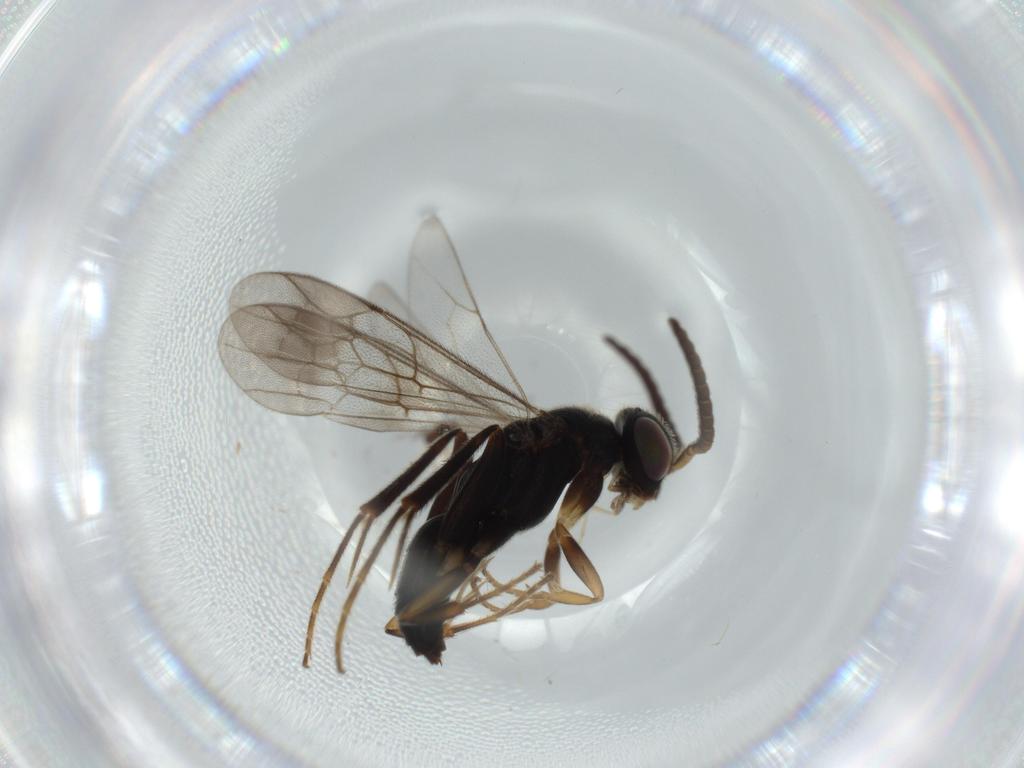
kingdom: Animalia
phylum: Arthropoda
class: Insecta
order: Hymenoptera
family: Mymaridae
